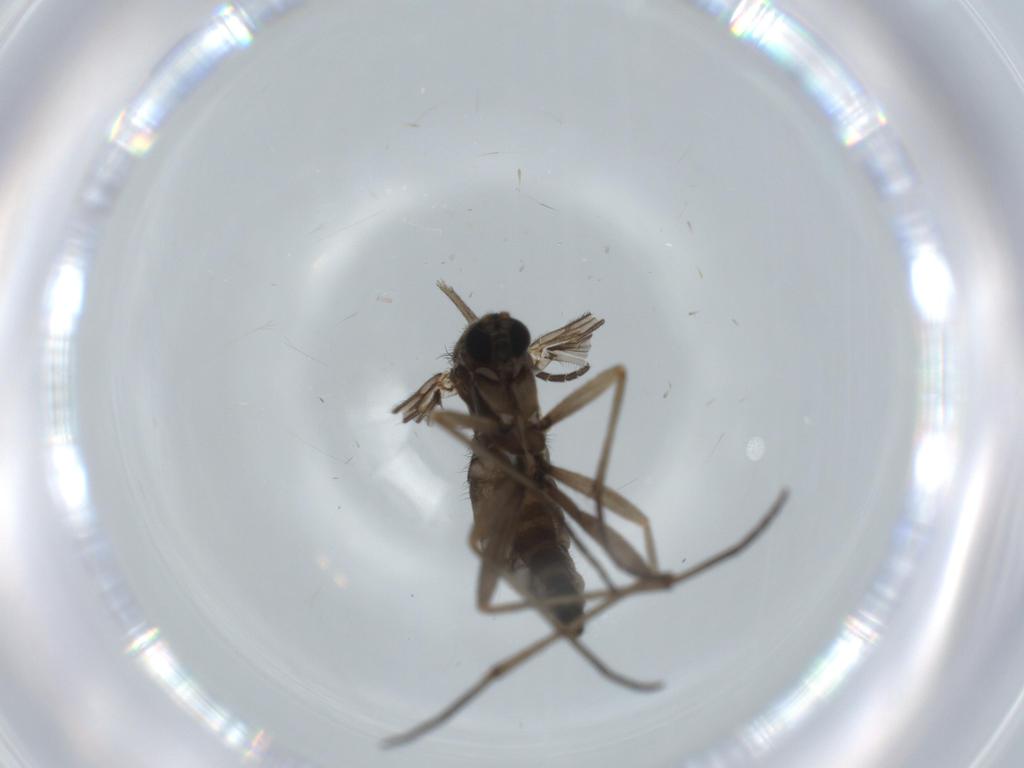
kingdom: Animalia
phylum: Arthropoda
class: Insecta
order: Diptera
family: Sciaridae
